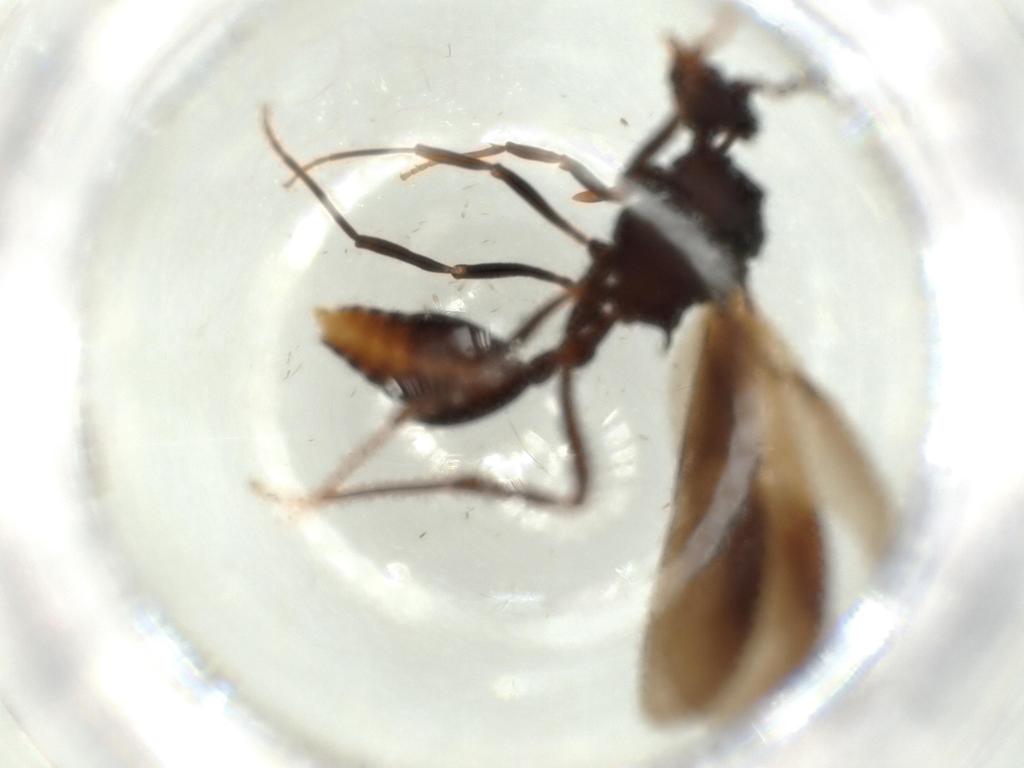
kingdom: Animalia
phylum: Arthropoda
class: Insecta
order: Hymenoptera
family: Formicidae
